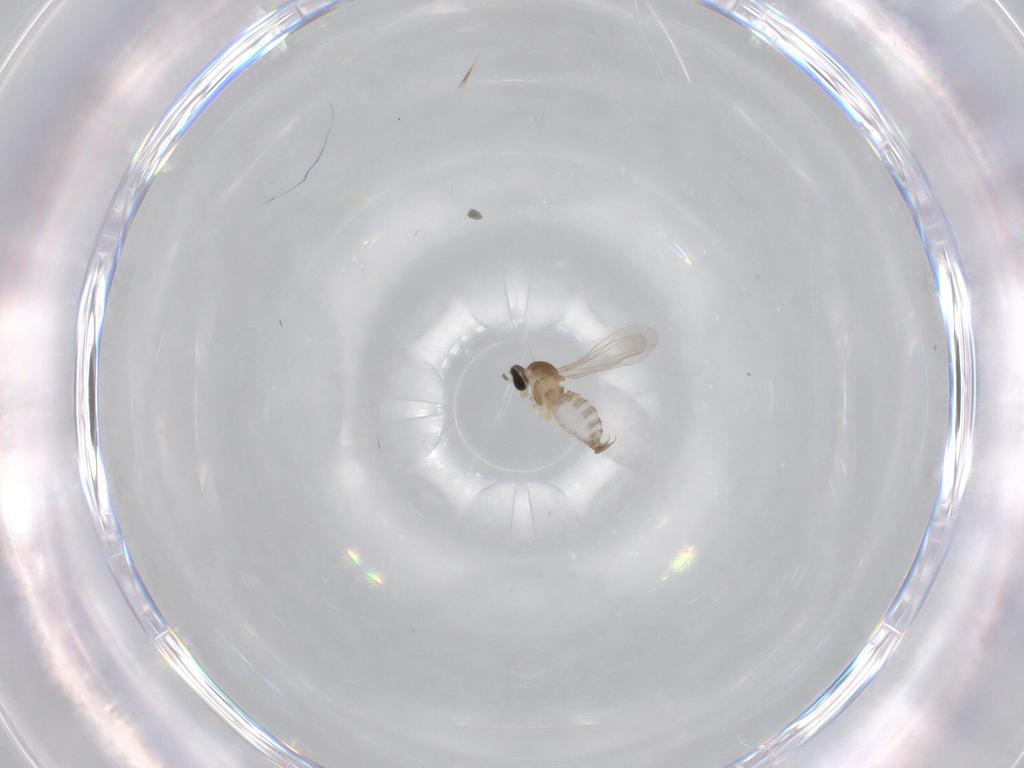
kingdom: Animalia
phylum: Arthropoda
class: Insecta
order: Diptera
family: Cecidomyiidae
